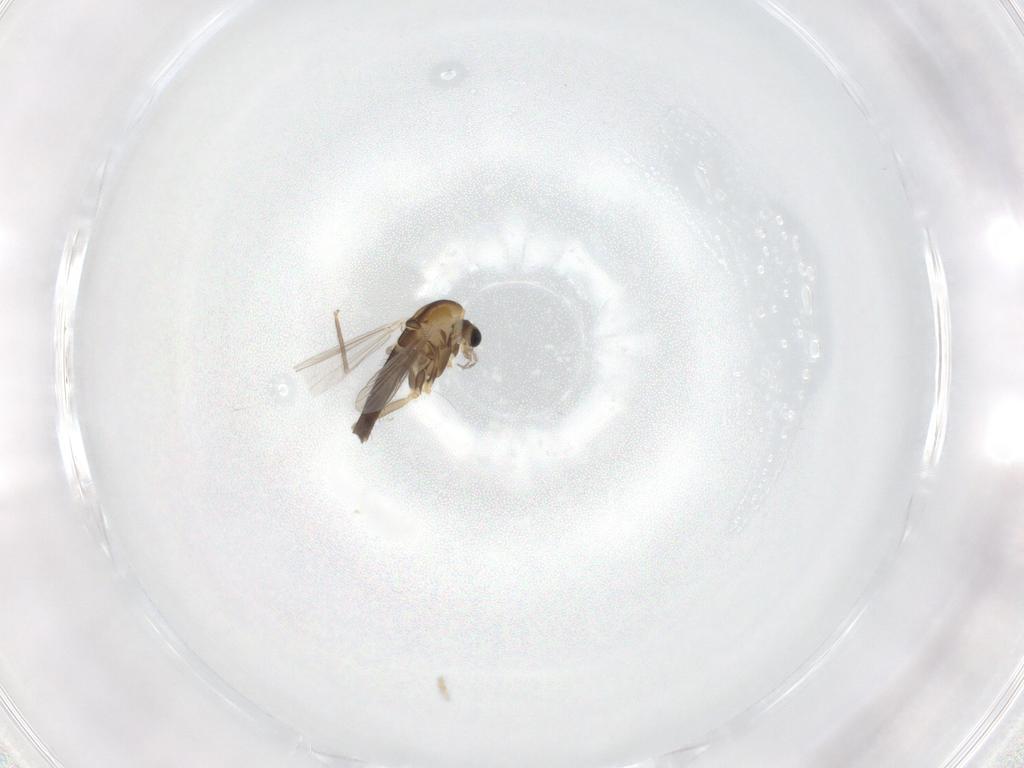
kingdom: Animalia
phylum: Arthropoda
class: Insecta
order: Diptera
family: Chironomidae
